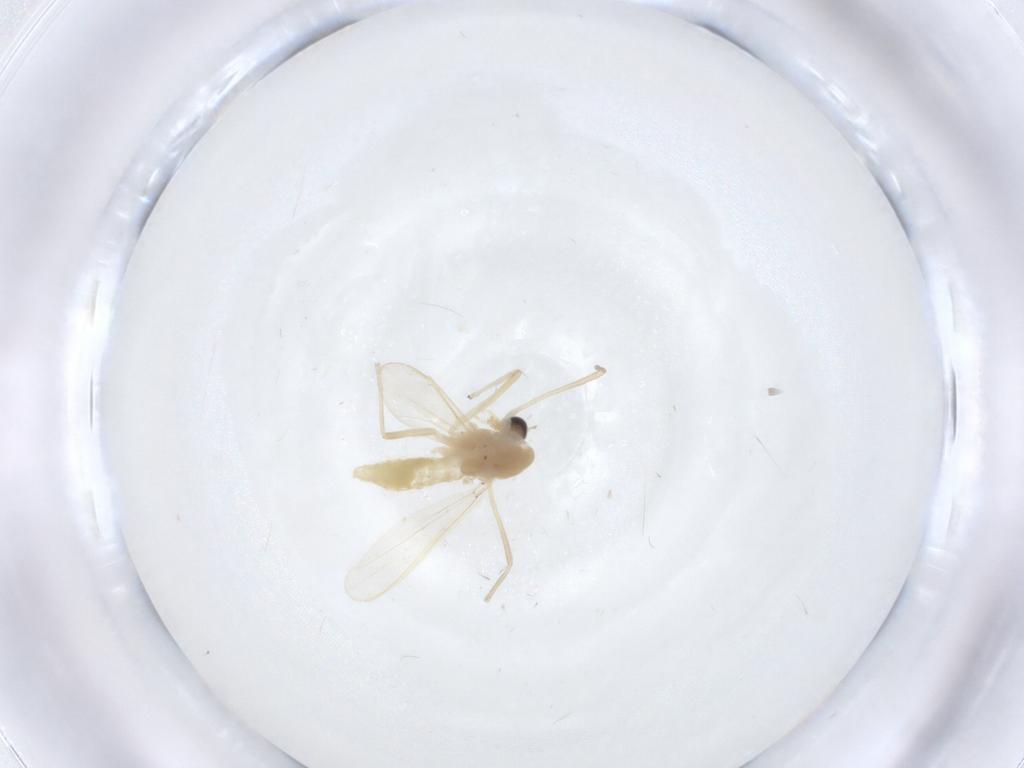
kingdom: Animalia
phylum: Arthropoda
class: Insecta
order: Diptera
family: Chironomidae
